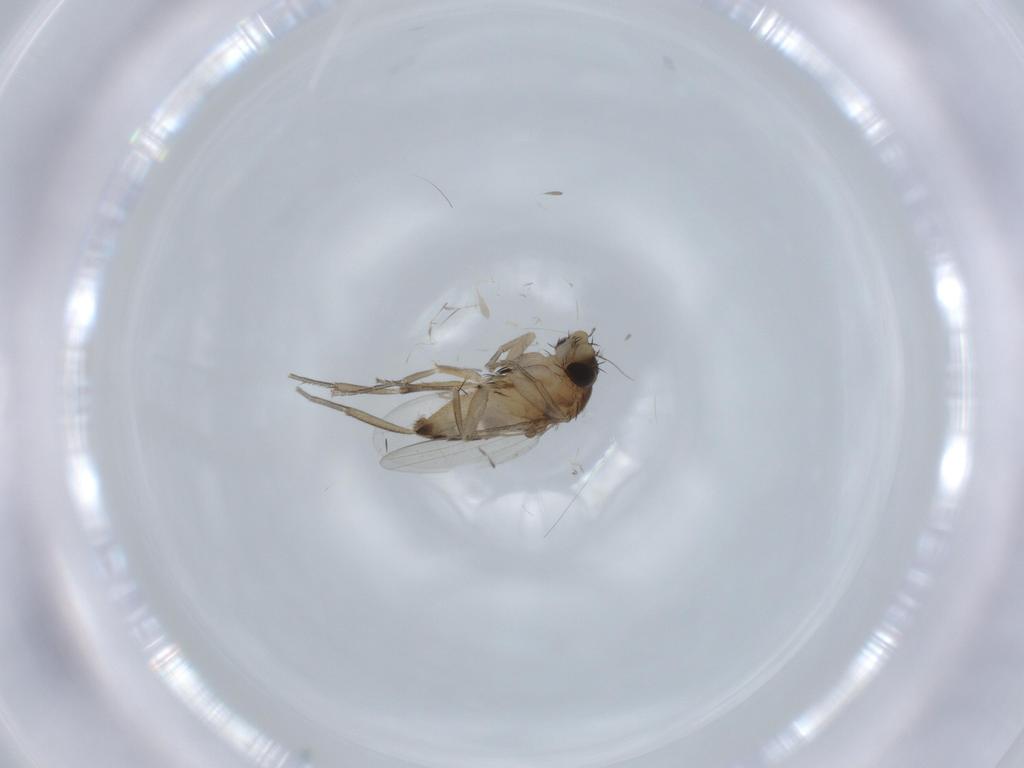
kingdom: Animalia
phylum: Arthropoda
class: Insecta
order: Diptera
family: Phoridae
